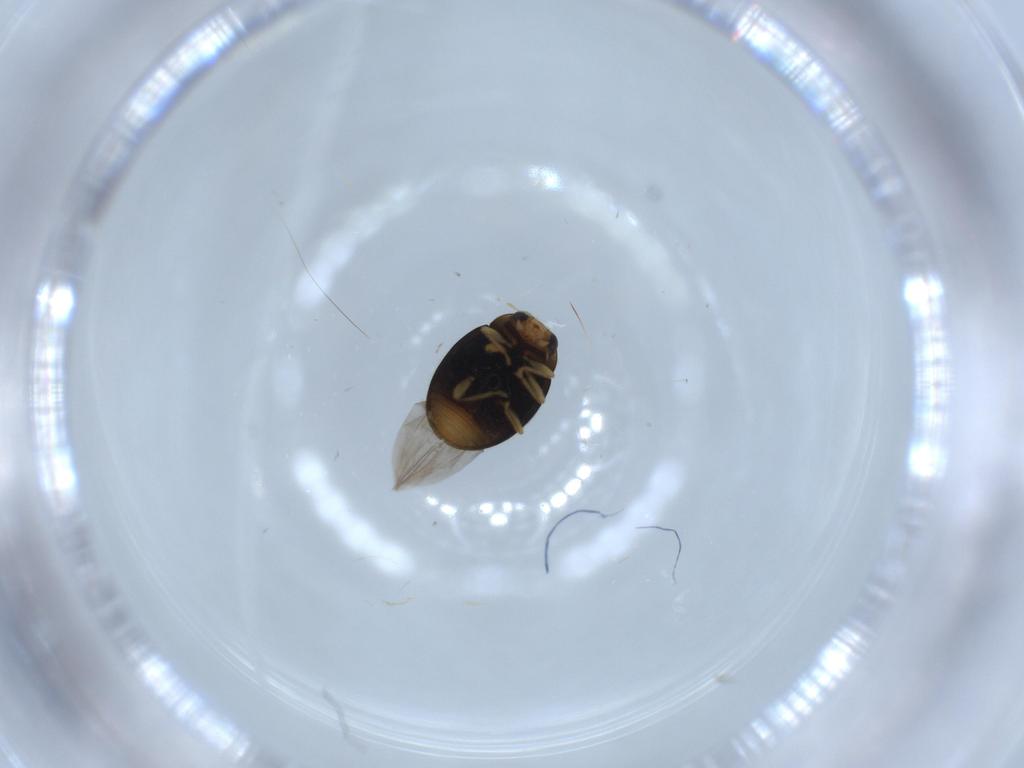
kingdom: Animalia
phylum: Arthropoda
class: Insecta
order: Coleoptera
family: Coccinellidae
